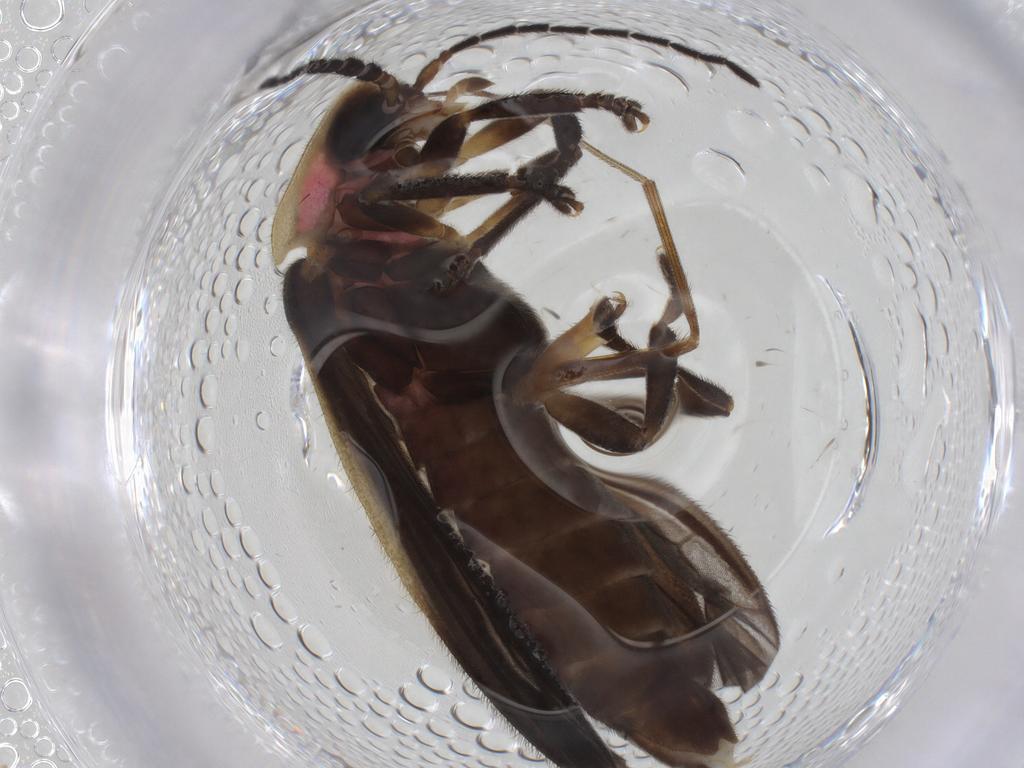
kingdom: Animalia
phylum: Arthropoda
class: Insecta
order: Coleoptera
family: Lampyridae
